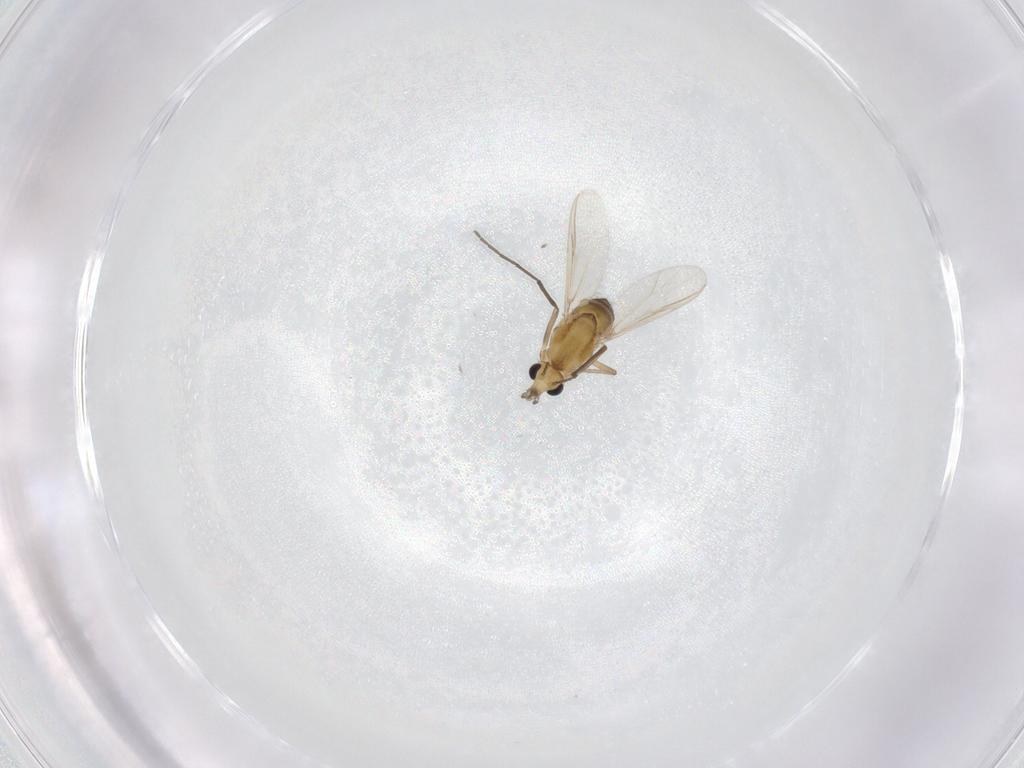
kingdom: Animalia
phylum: Arthropoda
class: Insecta
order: Diptera
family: Chironomidae
